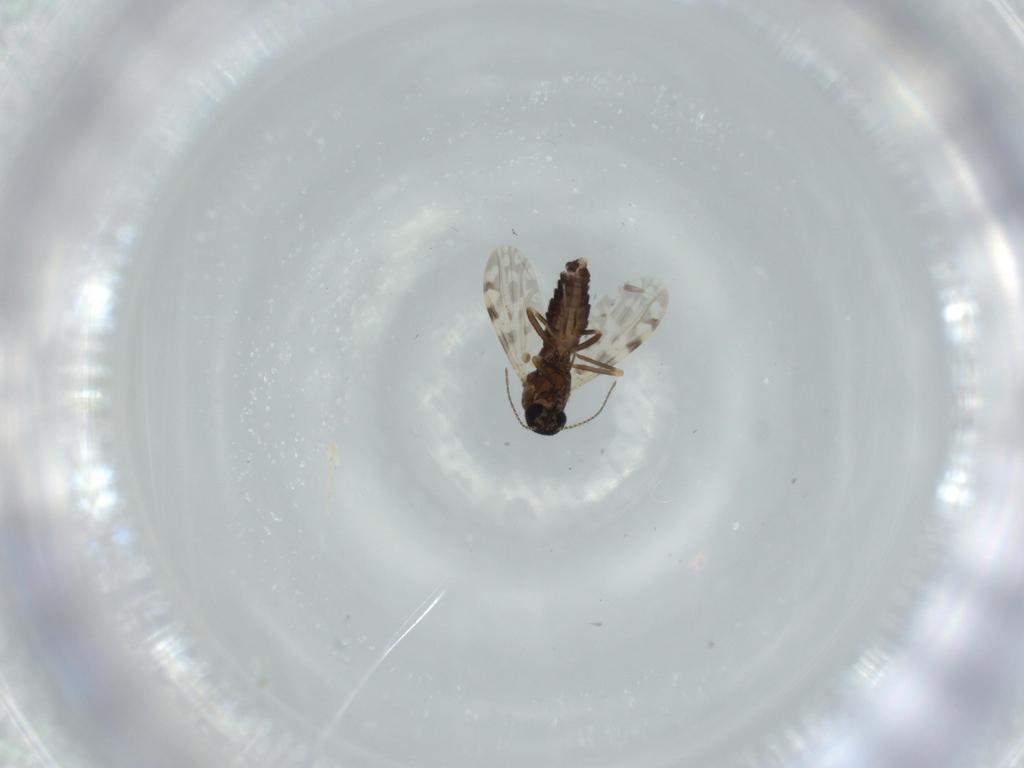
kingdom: Animalia
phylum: Arthropoda
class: Insecta
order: Diptera
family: Ceratopogonidae
